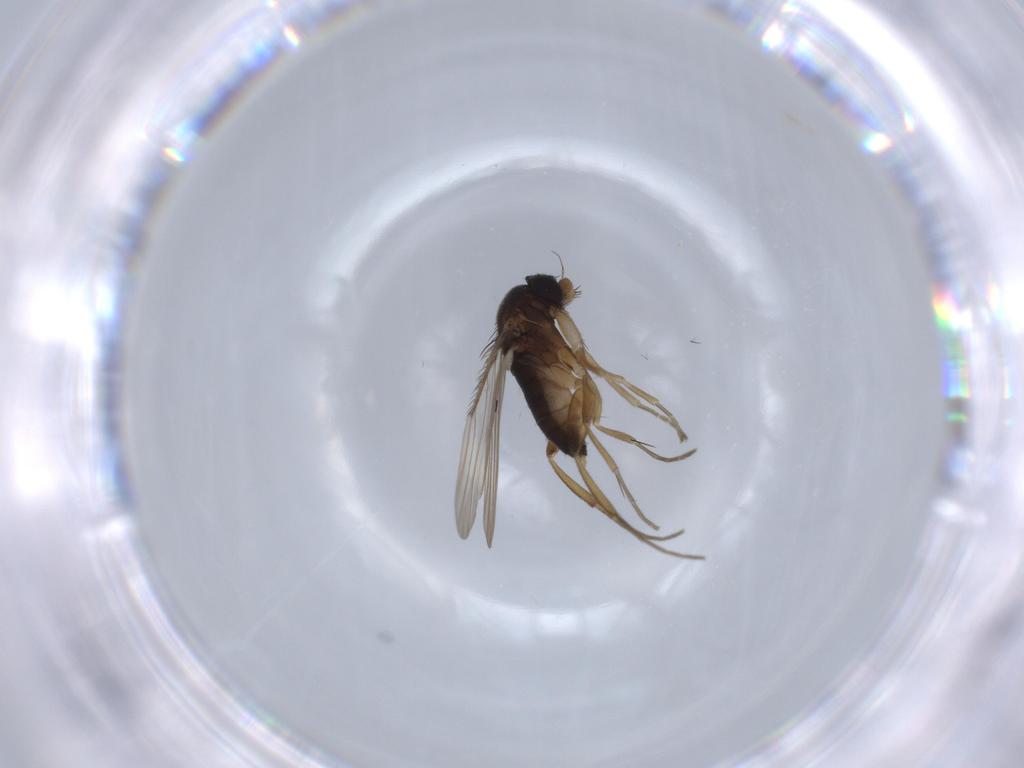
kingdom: Animalia
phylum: Arthropoda
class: Insecta
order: Diptera
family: Phoridae
